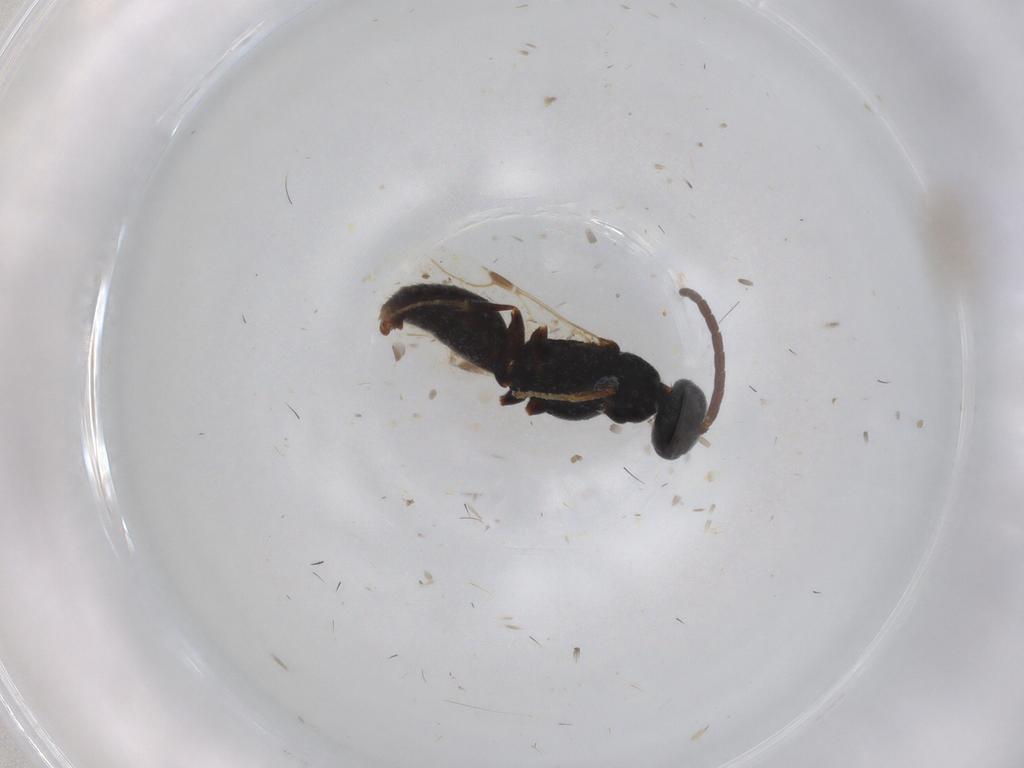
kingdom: Animalia
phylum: Arthropoda
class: Insecta
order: Hymenoptera
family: Bethylidae
